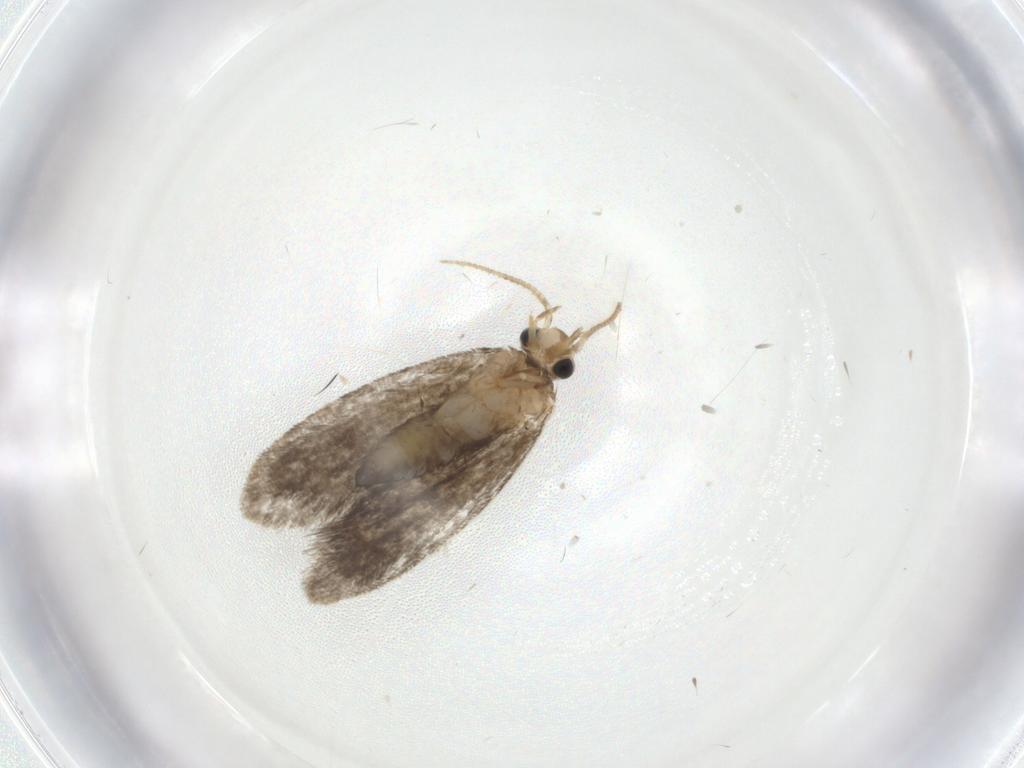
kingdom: Animalia
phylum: Arthropoda
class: Insecta
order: Lepidoptera
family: Psychidae
